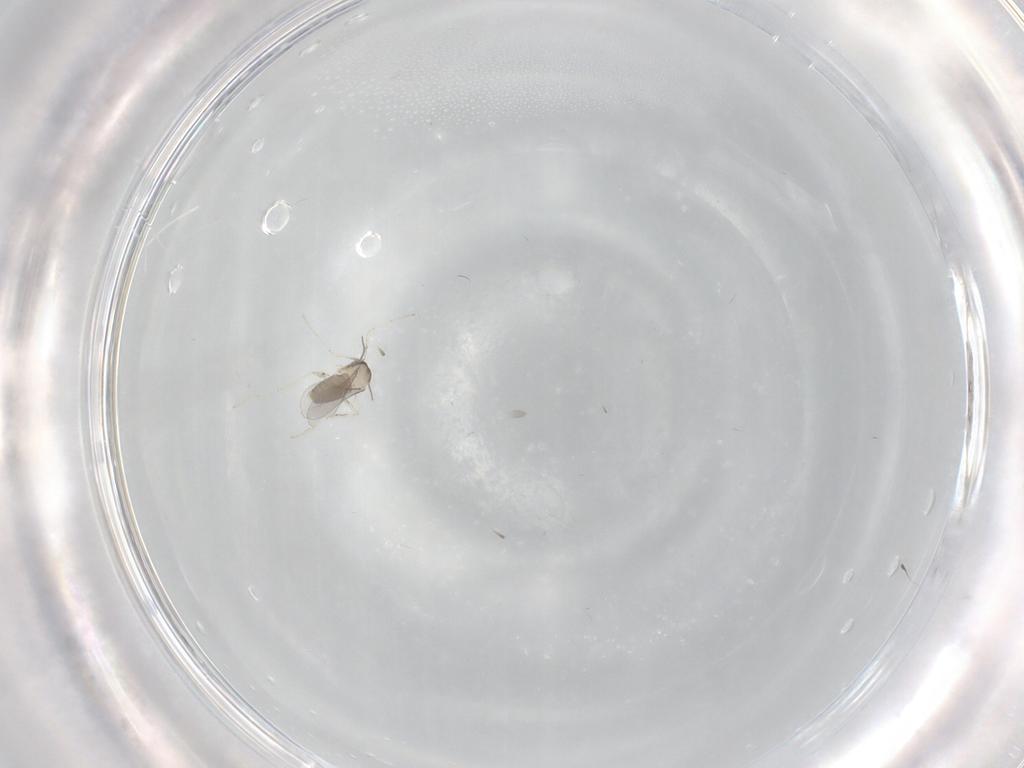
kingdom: Animalia
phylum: Arthropoda
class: Insecta
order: Diptera
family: Cecidomyiidae
